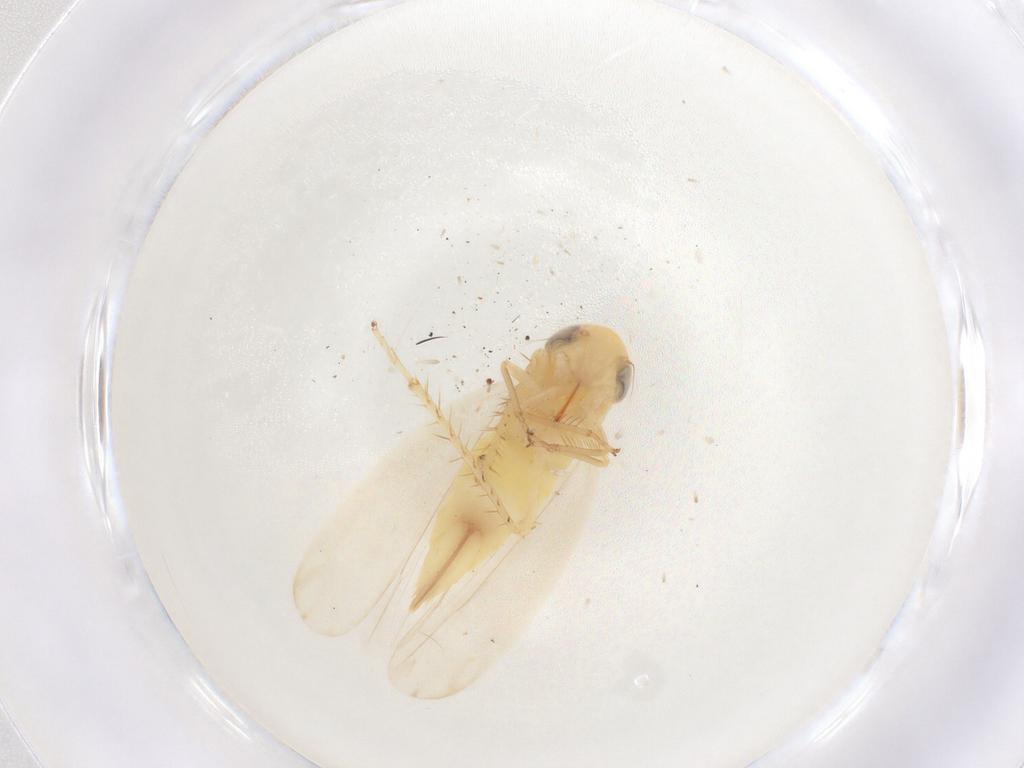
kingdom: Animalia
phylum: Arthropoda
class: Insecta
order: Hemiptera
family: Cicadellidae
